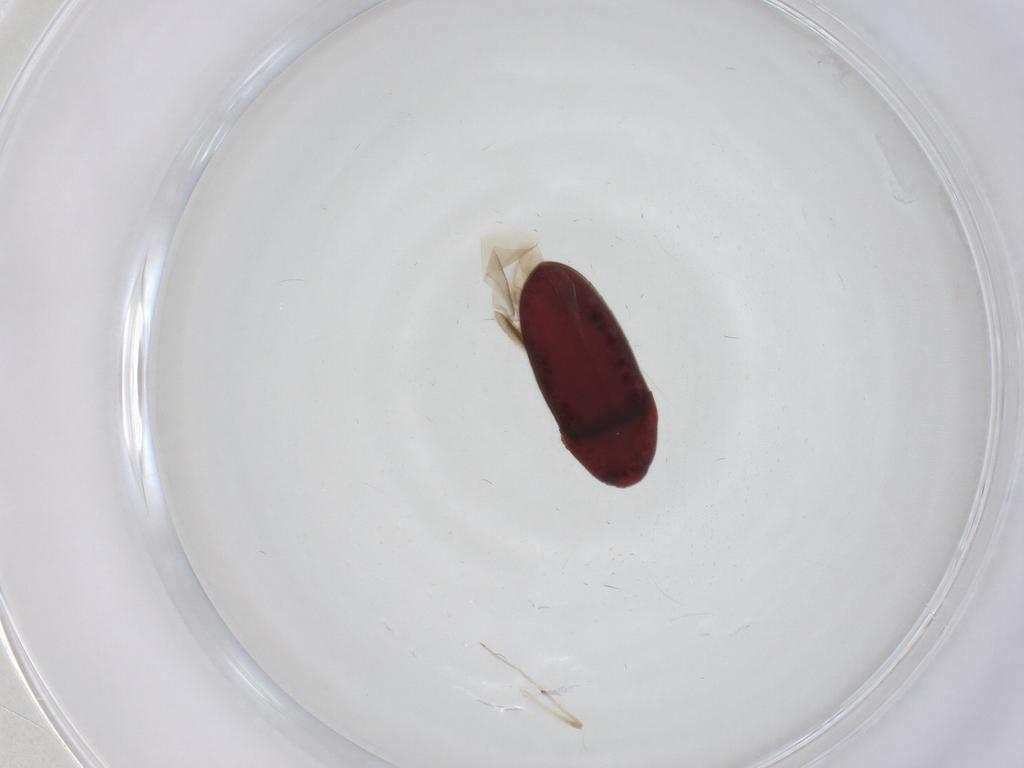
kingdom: Animalia
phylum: Arthropoda
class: Insecta
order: Coleoptera
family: Throscidae
